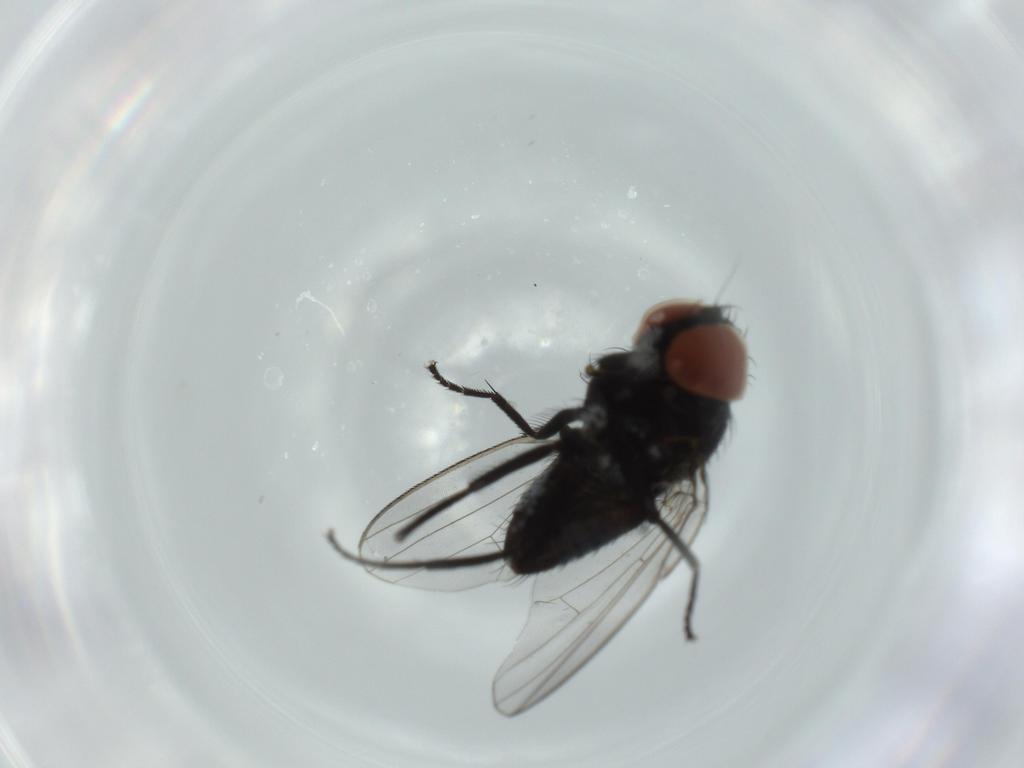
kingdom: Animalia
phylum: Arthropoda
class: Insecta
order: Diptera
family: Milichiidae
